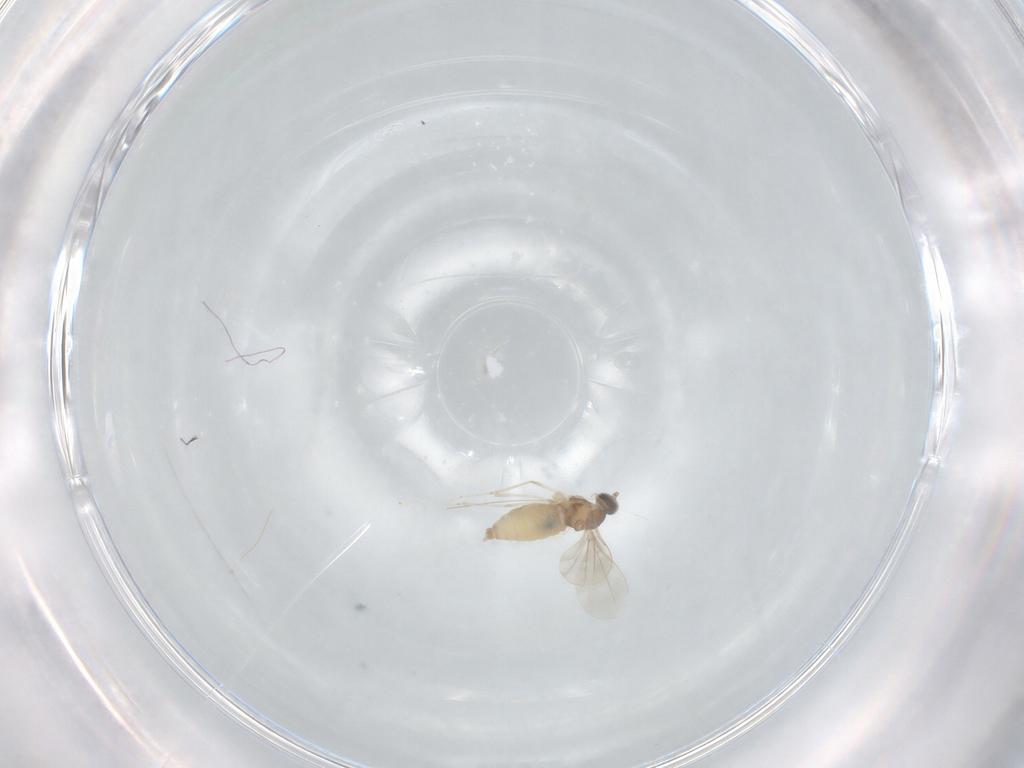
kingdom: Animalia
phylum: Arthropoda
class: Insecta
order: Diptera
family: Cecidomyiidae
